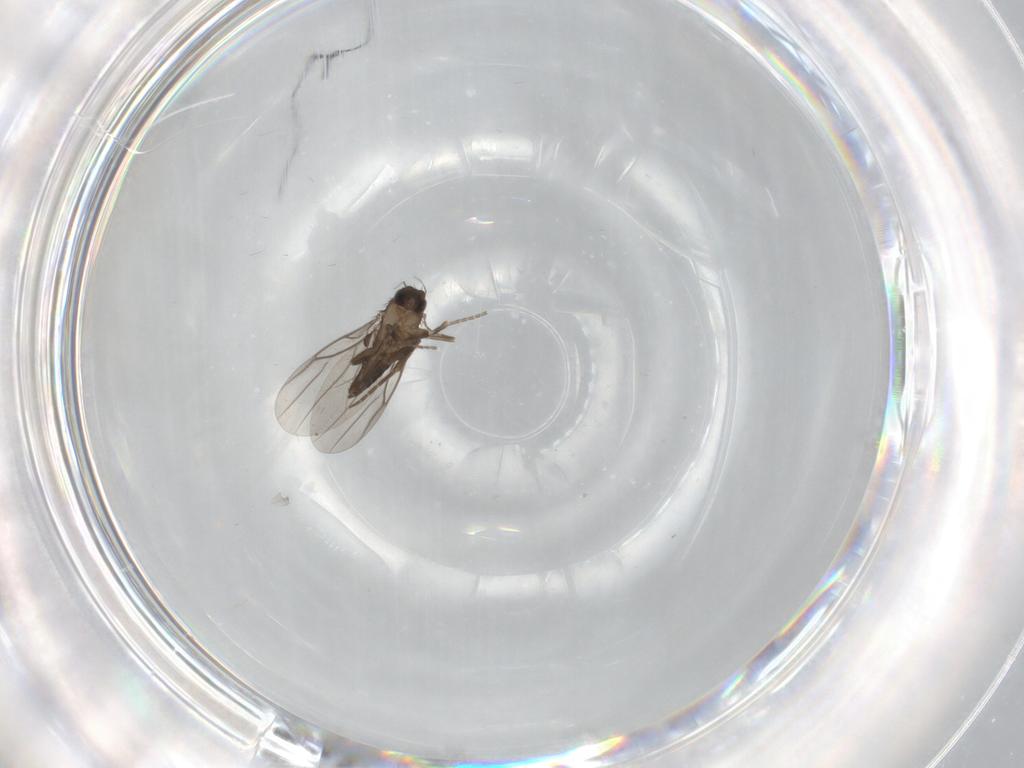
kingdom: Animalia
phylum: Arthropoda
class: Insecta
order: Diptera
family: Phoridae
